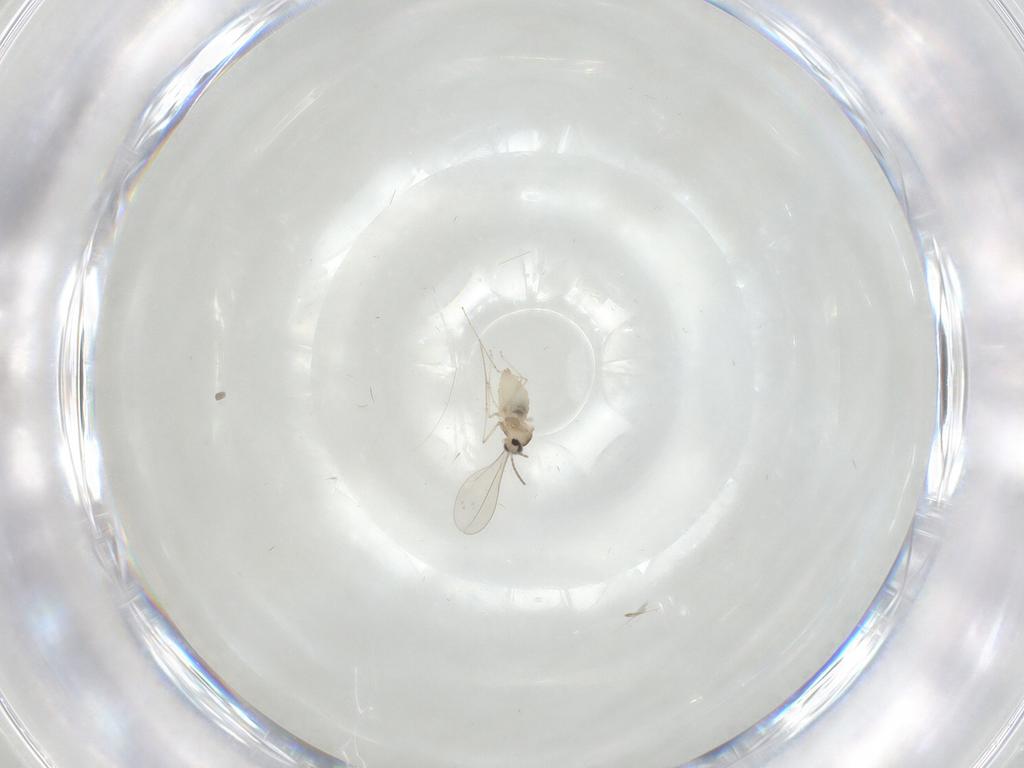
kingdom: Animalia
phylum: Arthropoda
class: Insecta
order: Diptera
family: Cecidomyiidae
